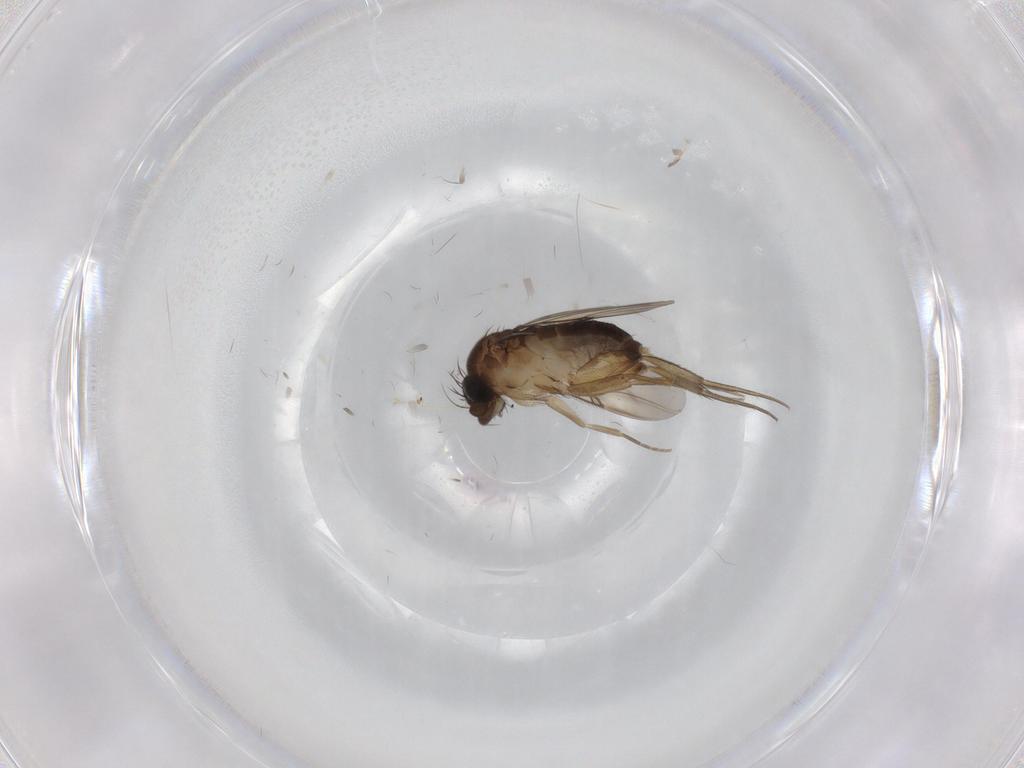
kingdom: Animalia
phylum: Arthropoda
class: Insecta
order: Diptera
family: Phoridae
